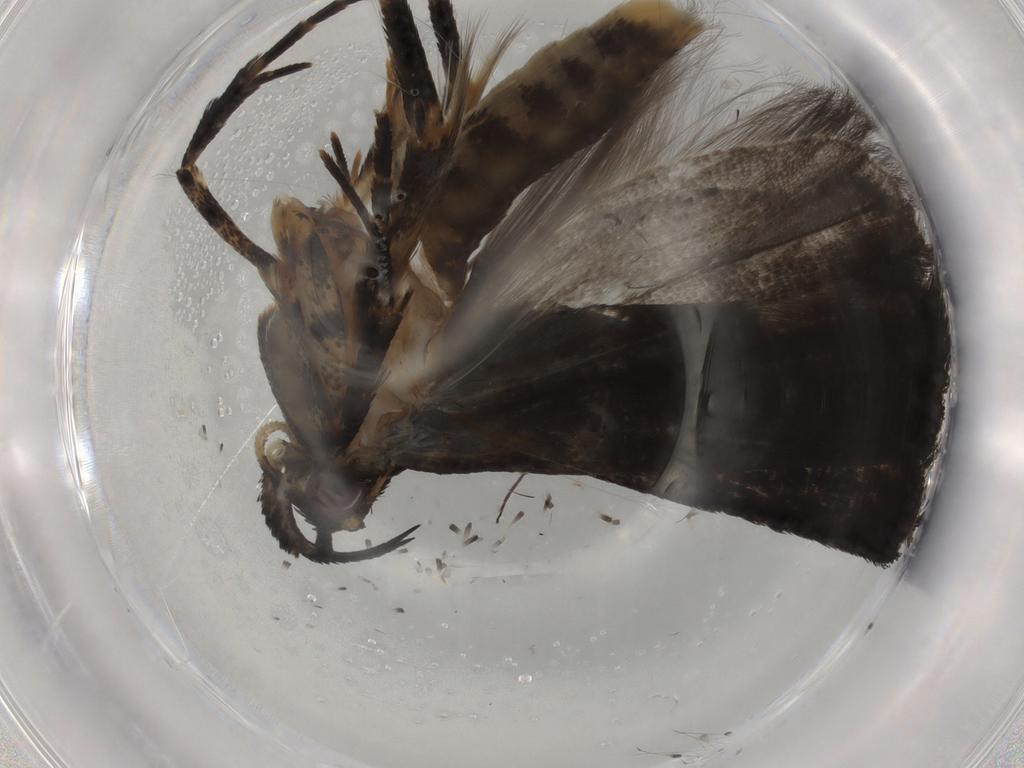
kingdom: Animalia
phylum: Arthropoda
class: Insecta
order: Lepidoptera
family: Gelechiidae
